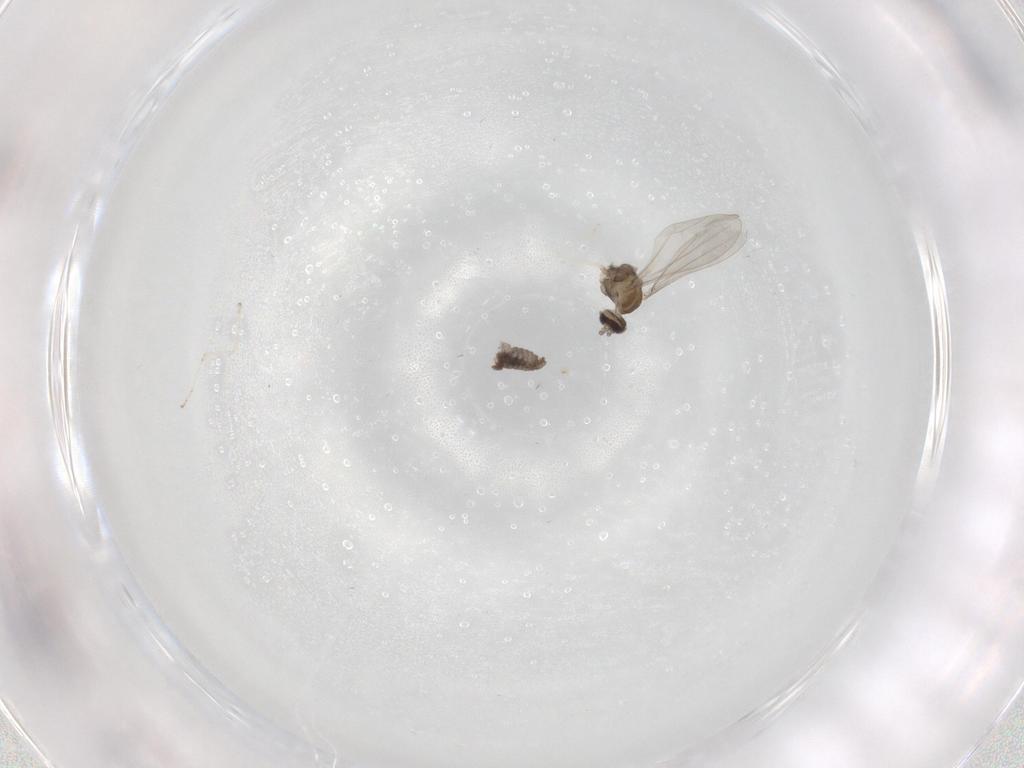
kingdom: Animalia
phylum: Arthropoda
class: Insecta
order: Diptera
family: Cecidomyiidae
